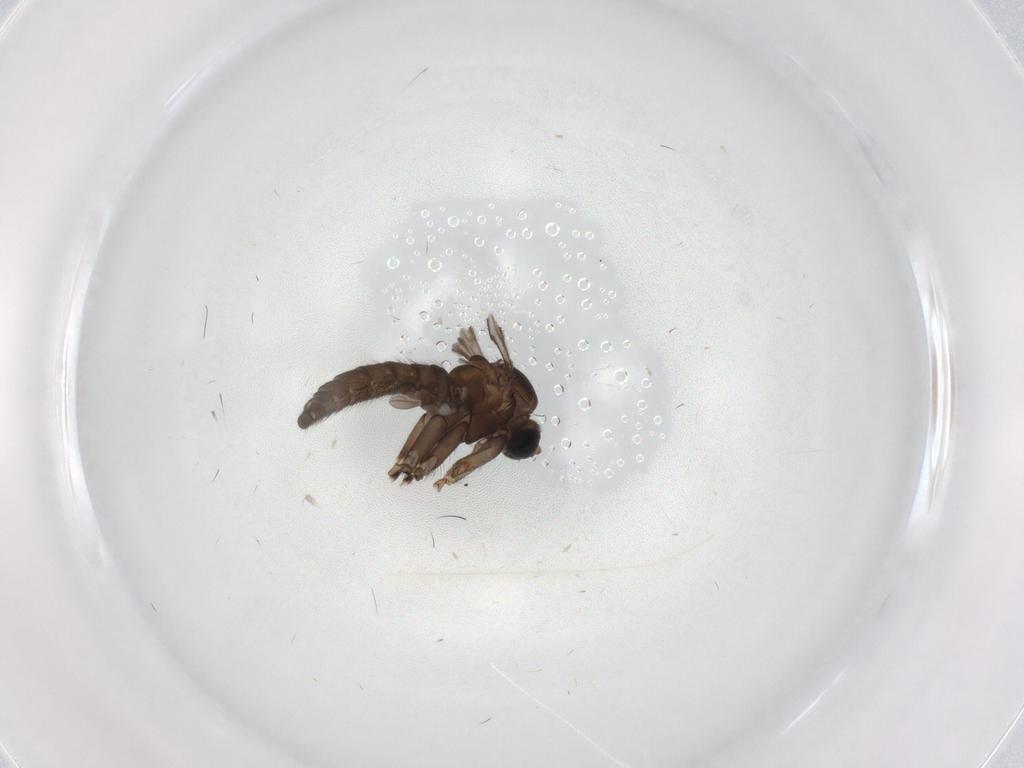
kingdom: Animalia
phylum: Arthropoda
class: Insecta
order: Diptera
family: Sciaridae
